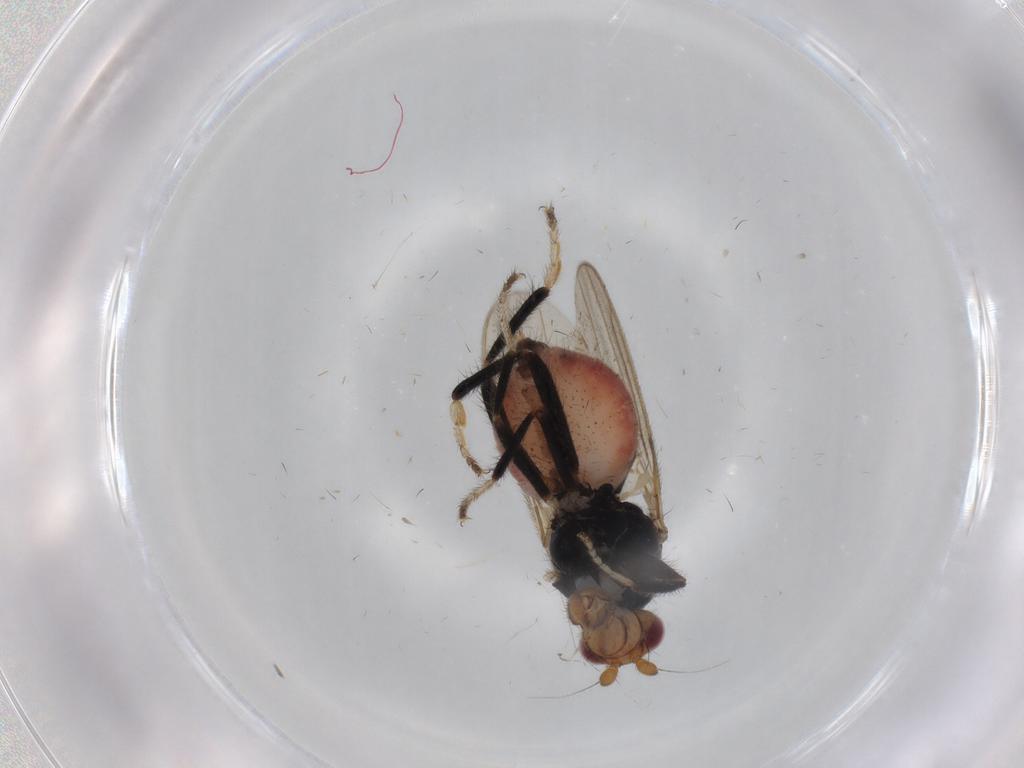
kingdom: Animalia
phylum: Arthropoda
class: Insecta
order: Diptera
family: Sphaeroceridae
